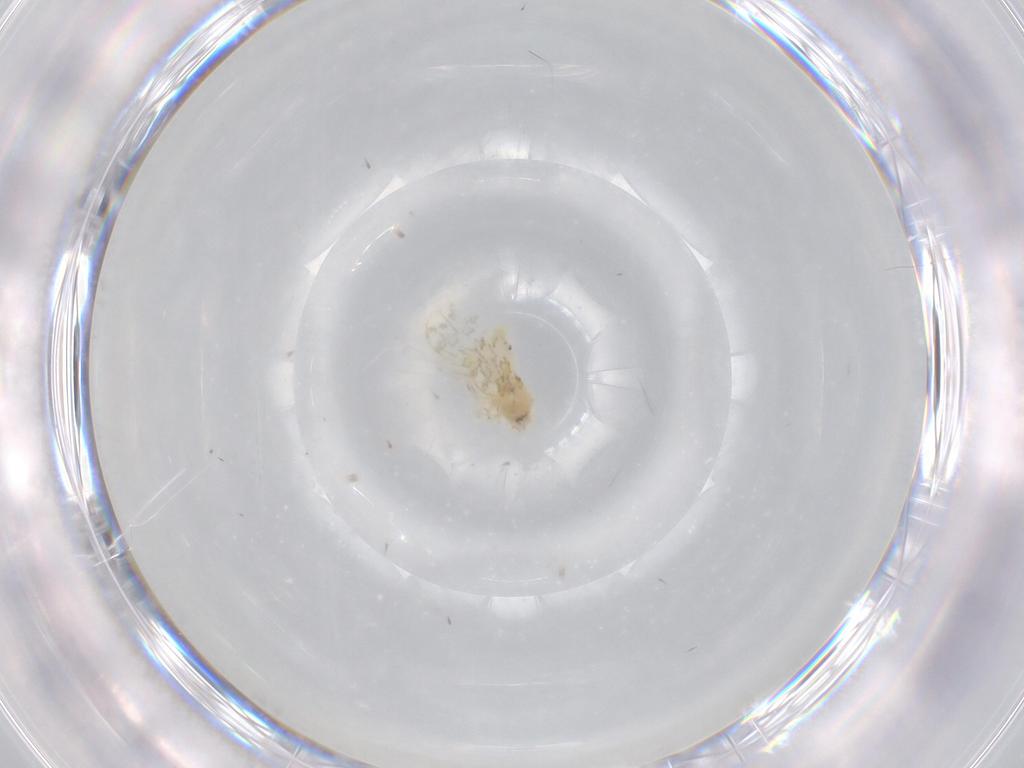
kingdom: Animalia
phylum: Arthropoda
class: Insecta
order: Hemiptera
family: Aleyrodidae
